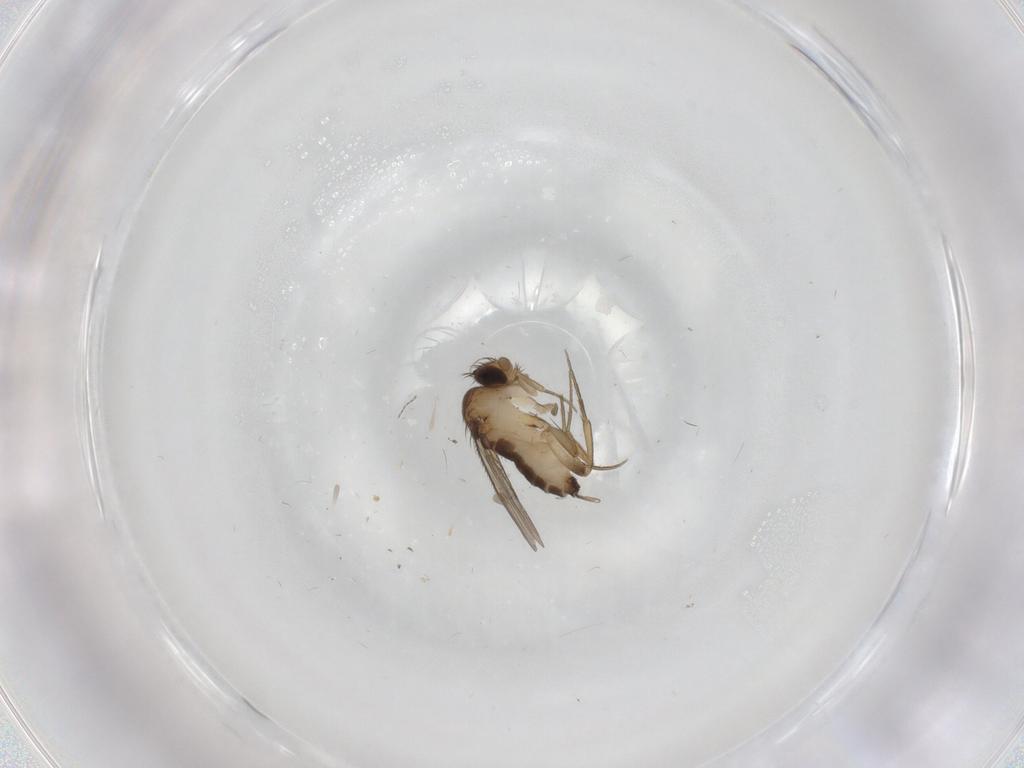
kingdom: Animalia
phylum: Arthropoda
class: Insecta
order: Diptera
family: Phoridae
